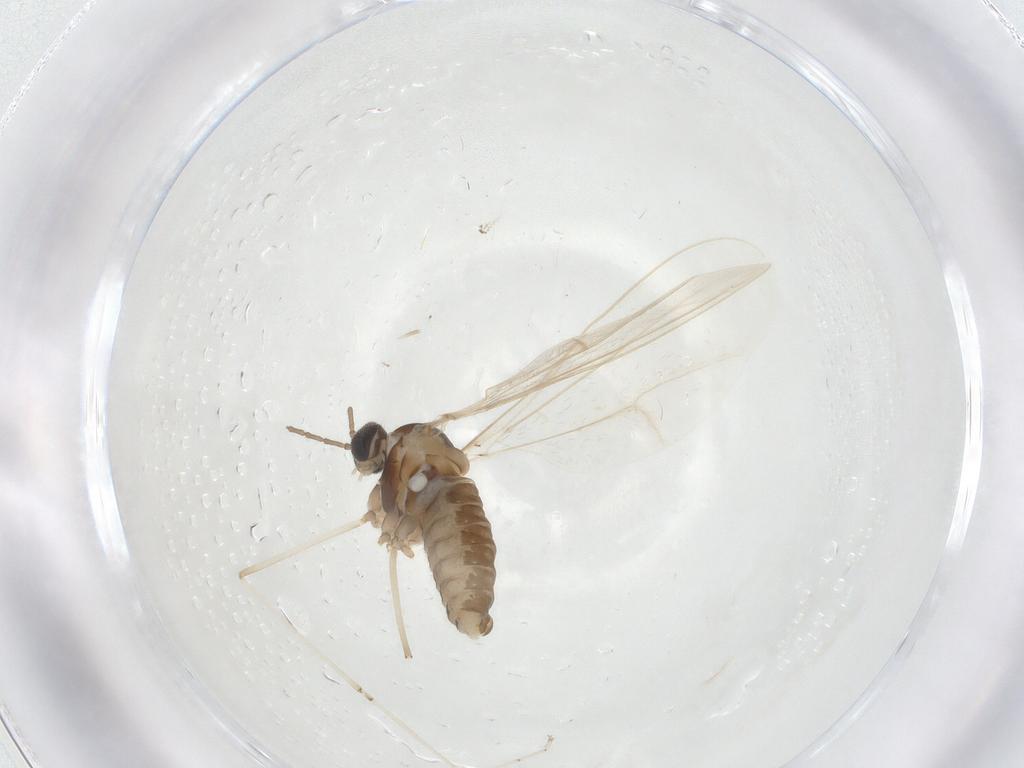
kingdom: Animalia
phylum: Arthropoda
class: Insecta
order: Diptera
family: Cecidomyiidae
